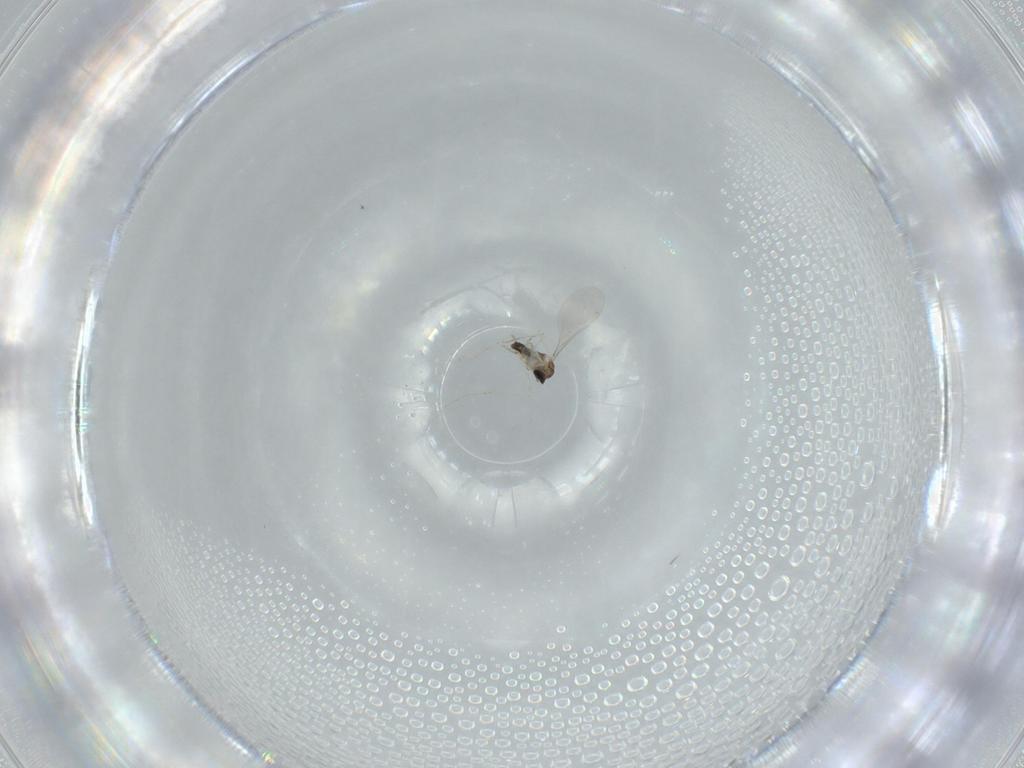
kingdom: Animalia
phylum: Arthropoda
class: Insecta
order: Diptera
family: Cecidomyiidae
